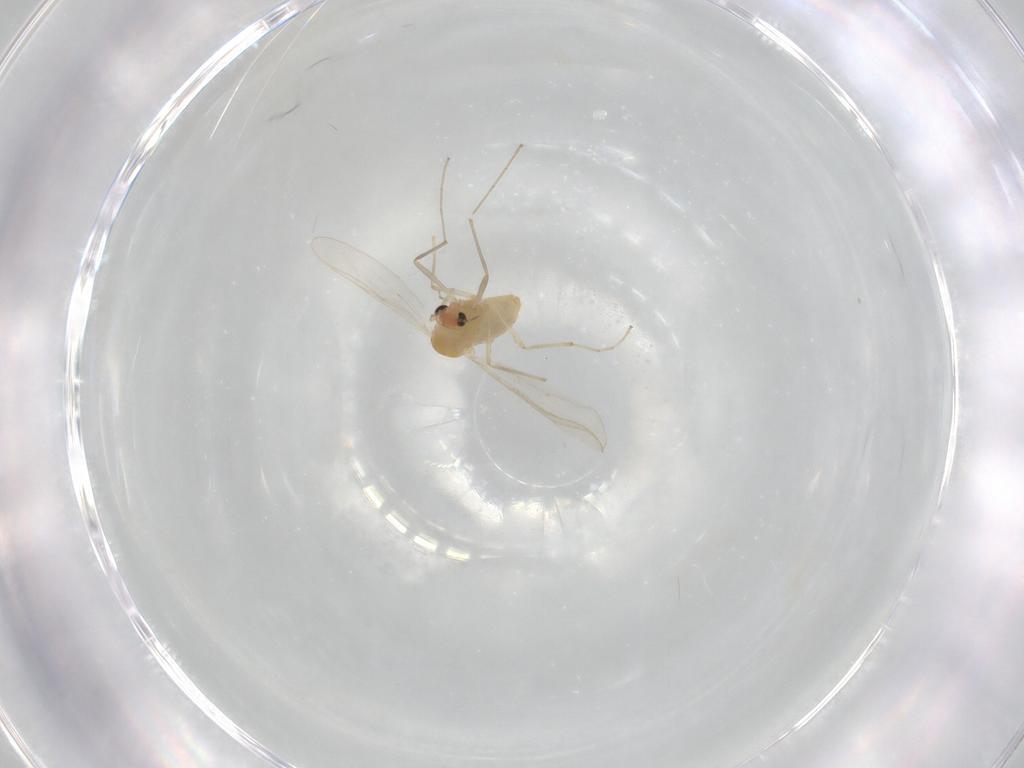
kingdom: Animalia
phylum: Arthropoda
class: Insecta
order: Diptera
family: Chironomidae
